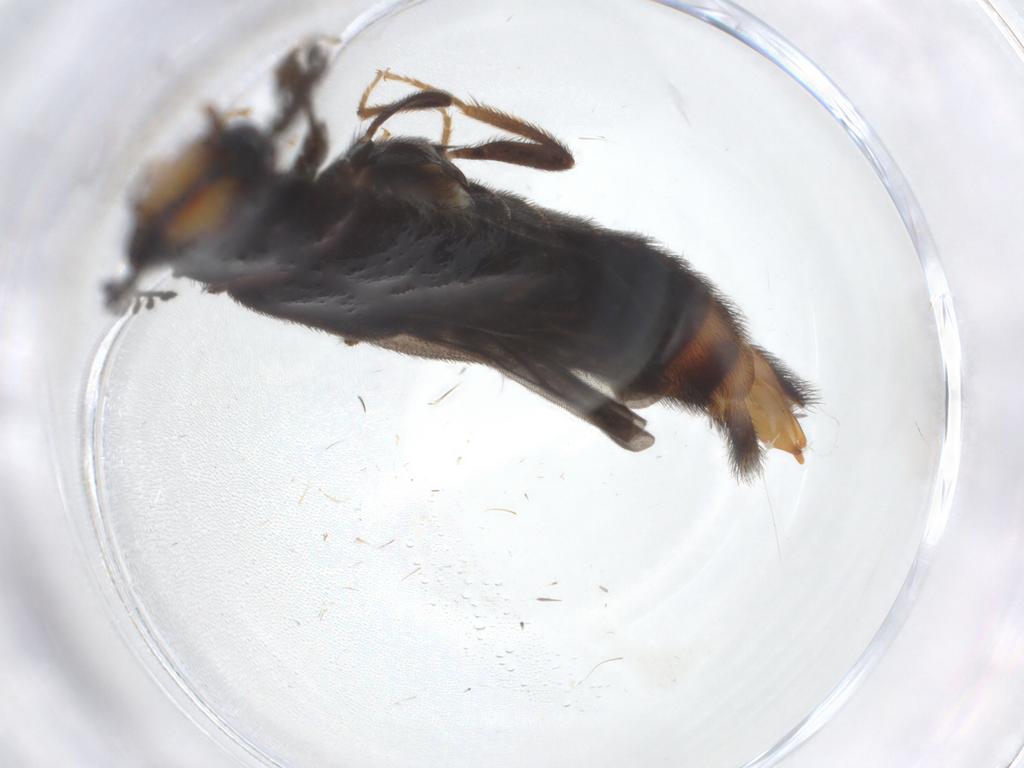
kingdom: Animalia
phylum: Arthropoda
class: Insecta
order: Coleoptera
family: Phengodidae
